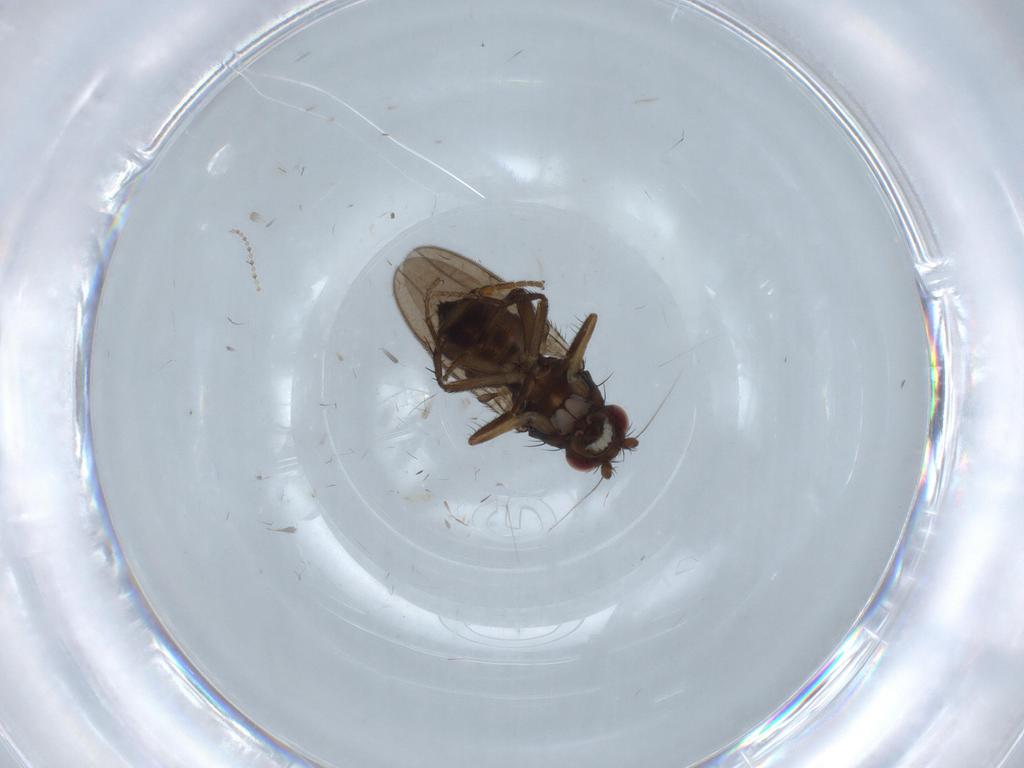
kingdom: Animalia
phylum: Arthropoda
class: Insecta
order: Diptera
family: Cecidomyiidae
